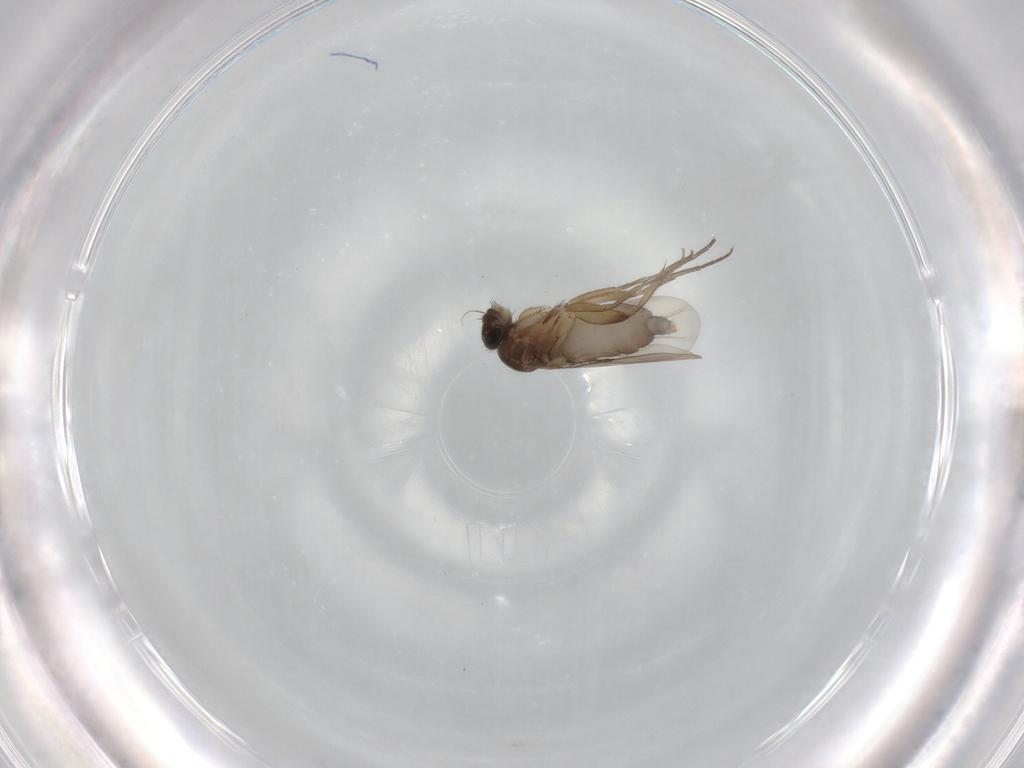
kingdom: Animalia
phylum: Arthropoda
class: Insecta
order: Diptera
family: Phoridae
